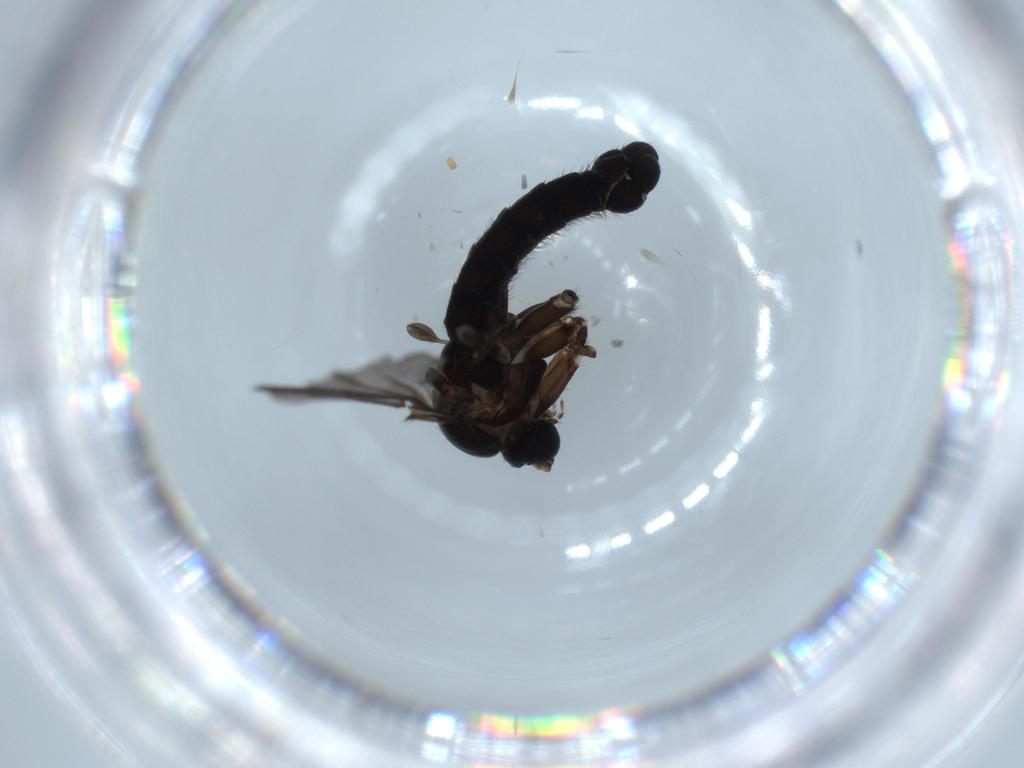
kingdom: Animalia
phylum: Arthropoda
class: Insecta
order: Diptera
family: Sciaridae
